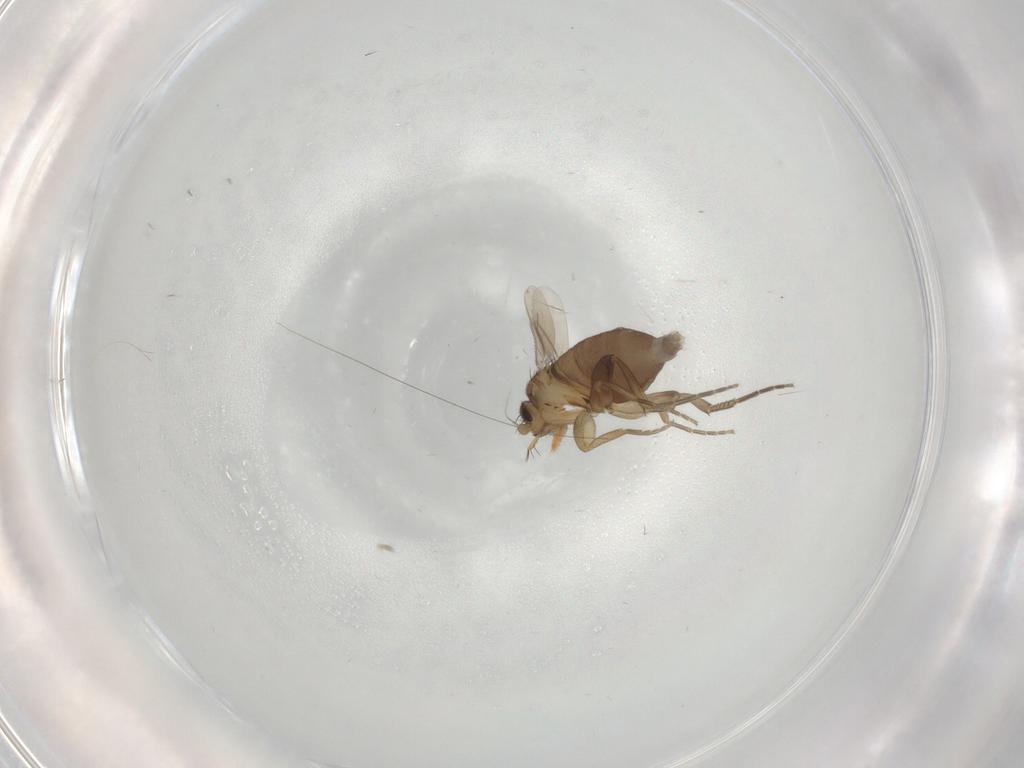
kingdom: Animalia
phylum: Arthropoda
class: Insecta
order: Diptera
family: Phoridae
